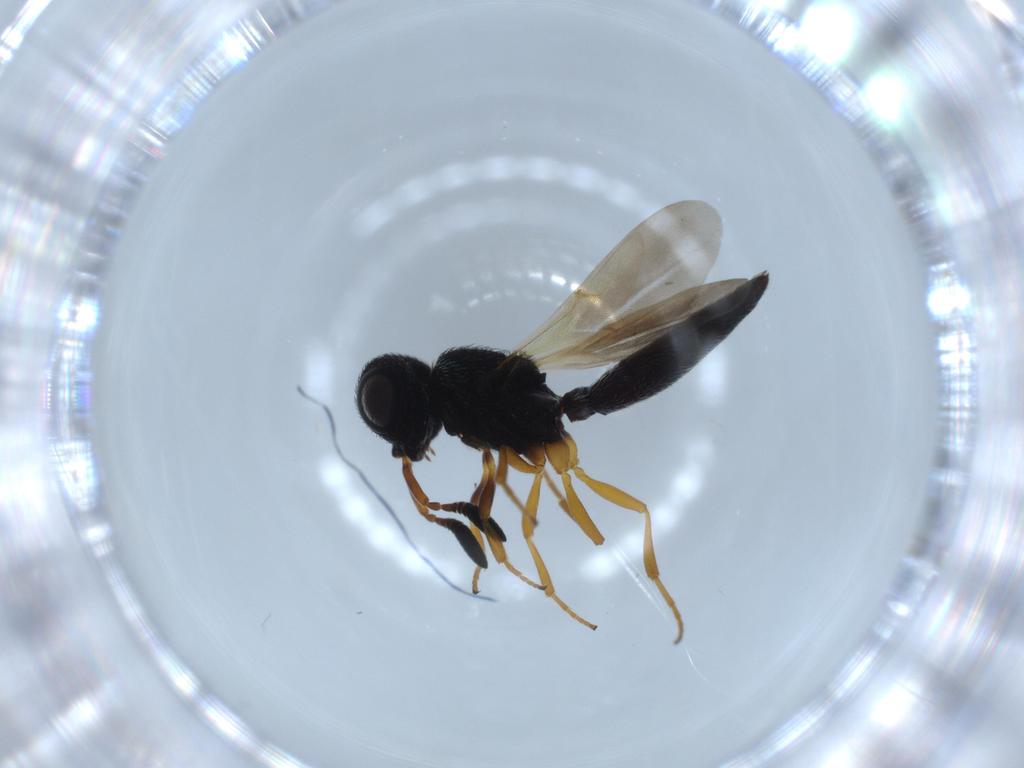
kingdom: Animalia
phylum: Arthropoda
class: Insecta
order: Hymenoptera
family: Scelionidae
